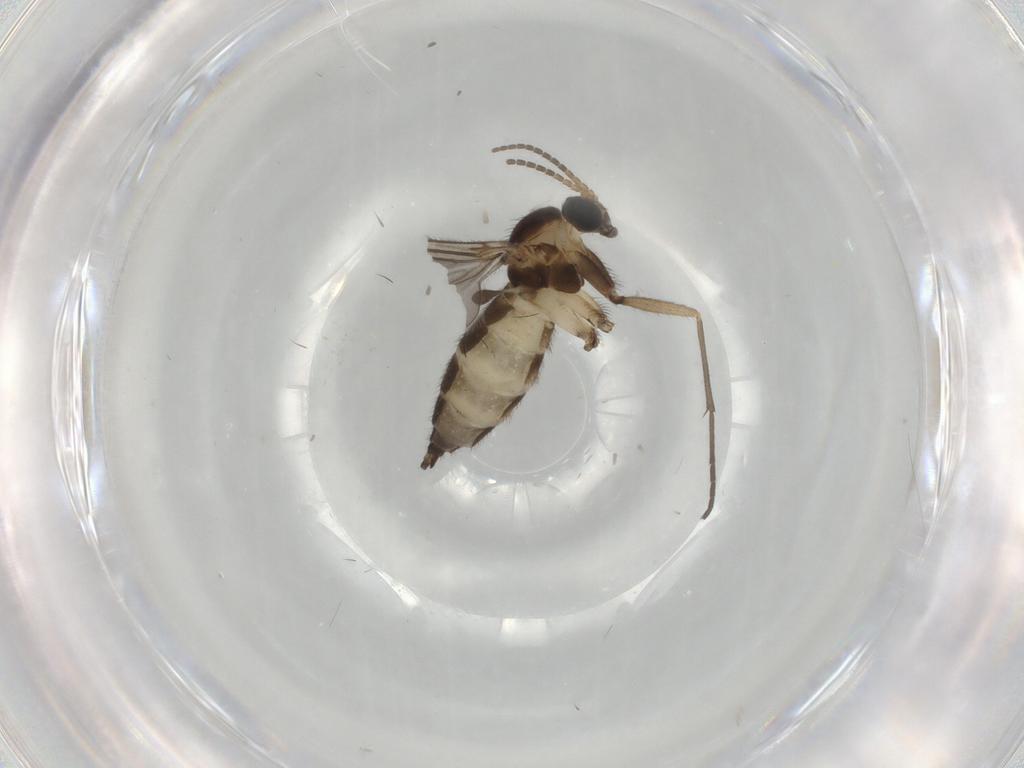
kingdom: Animalia
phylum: Arthropoda
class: Insecta
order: Diptera
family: Sciaridae
